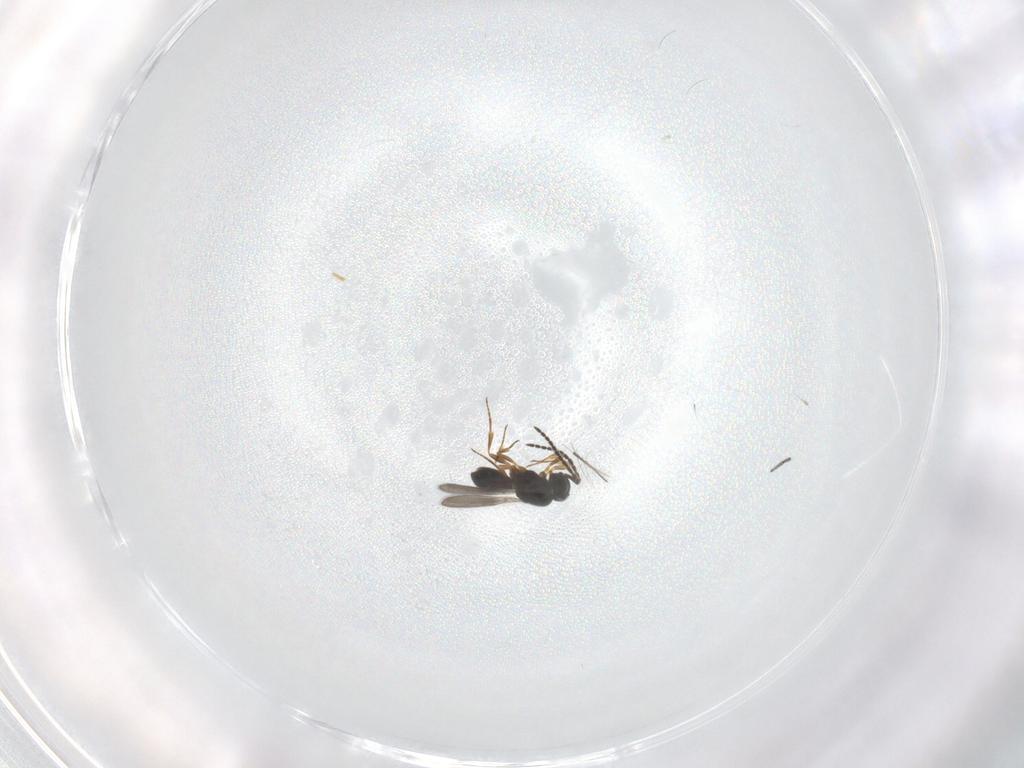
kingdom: Animalia
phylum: Arthropoda
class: Insecta
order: Hymenoptera
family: Scelionidae
